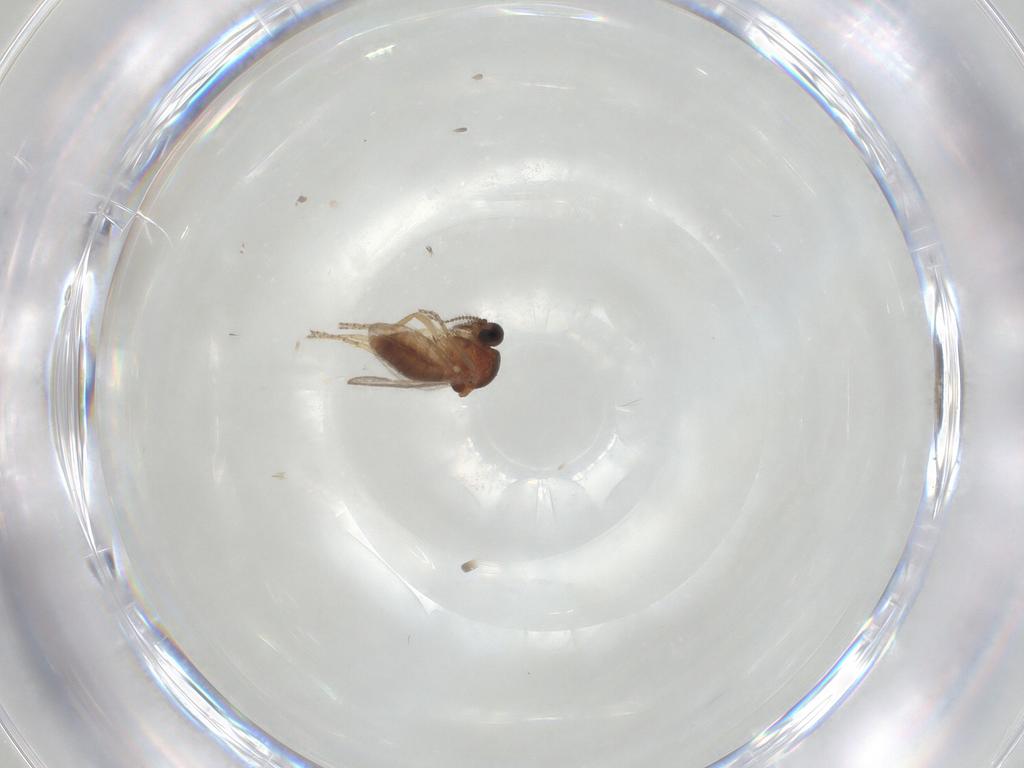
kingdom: Animalia
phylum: Arthropoda
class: Insecta
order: Diptera
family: Ceratopogonidae
